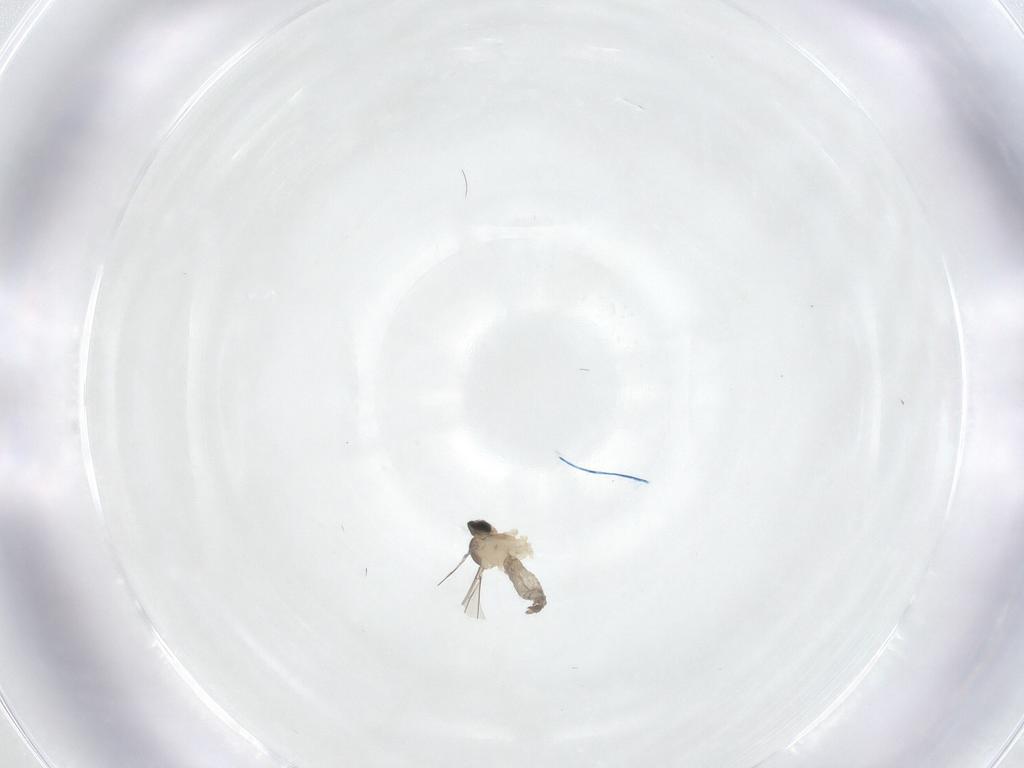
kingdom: Animalia
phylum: Arthropoda
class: Insecta
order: Diptera
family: Cecidomyiidae
